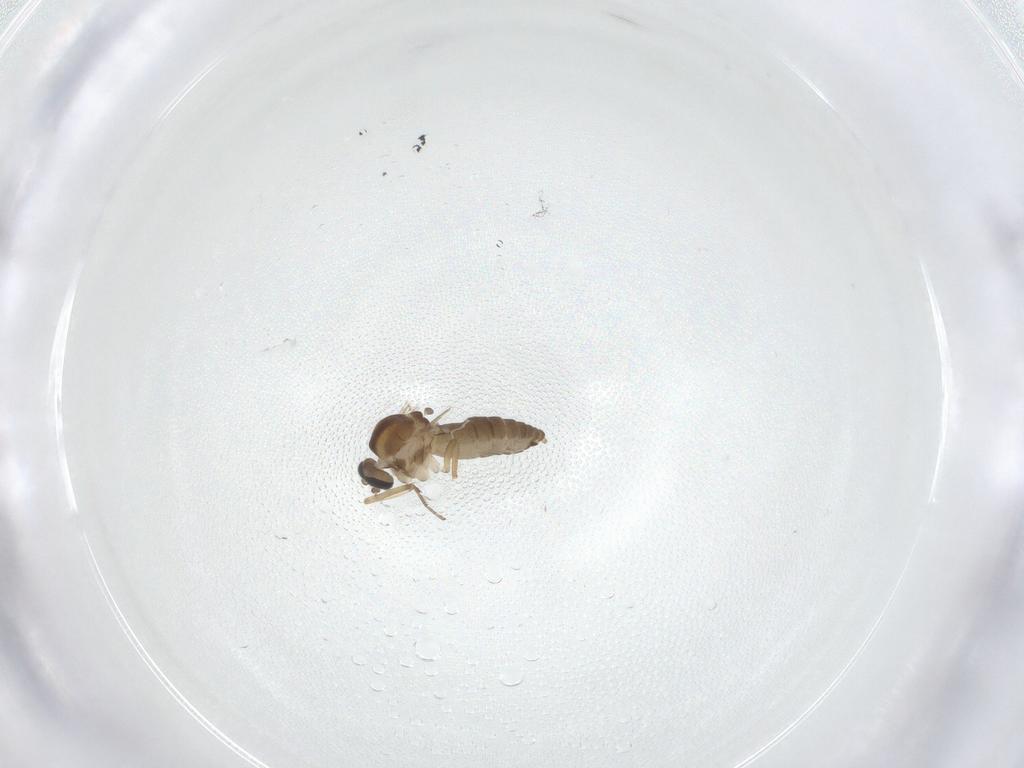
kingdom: Animalia
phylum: Arthropoda
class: Insecta
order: Diptera
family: Ceratopogonidae
